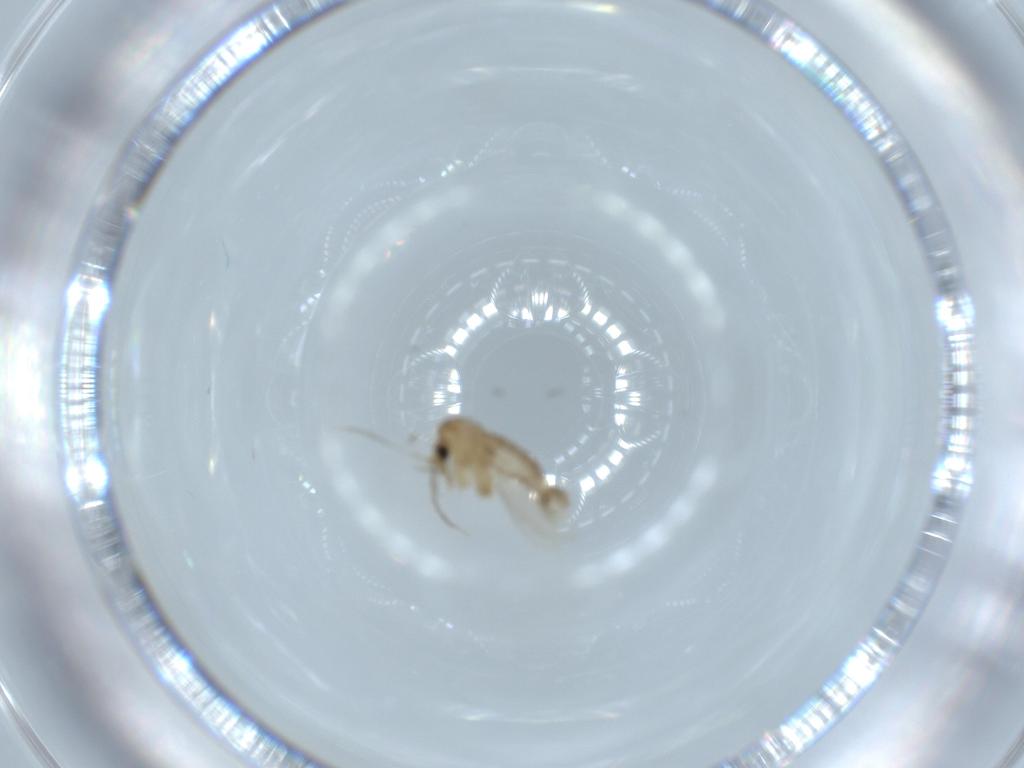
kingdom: Animalia
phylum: Arthropoda
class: Insecta
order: Diptera
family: Psychodidae
